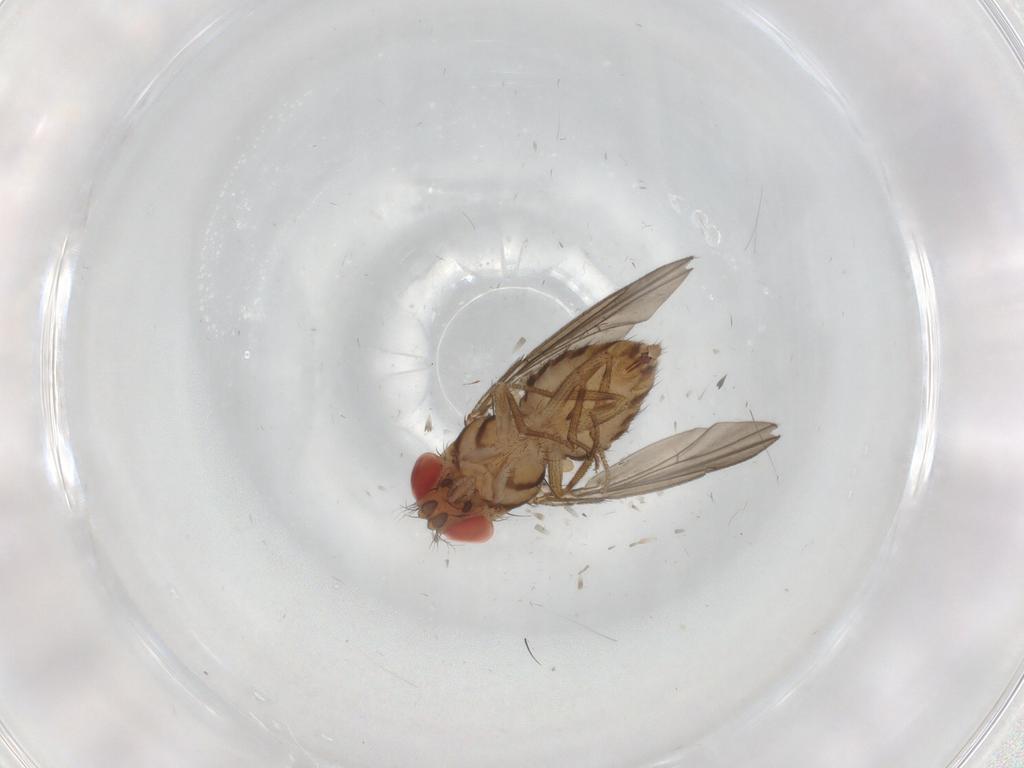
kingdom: Animalia
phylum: Arthropoda
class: Insecta
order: Diptera
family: Drosophilidae
